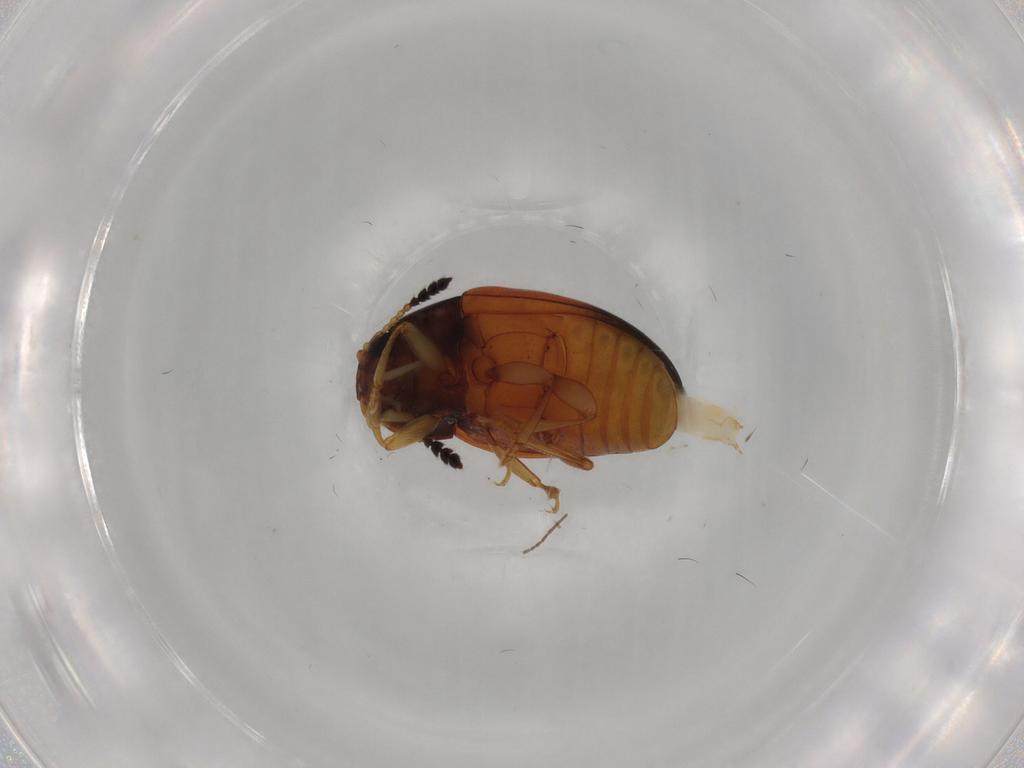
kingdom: Animalia
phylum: Arthropoda
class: Insecta
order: Coleoptera
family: Erotylidae
